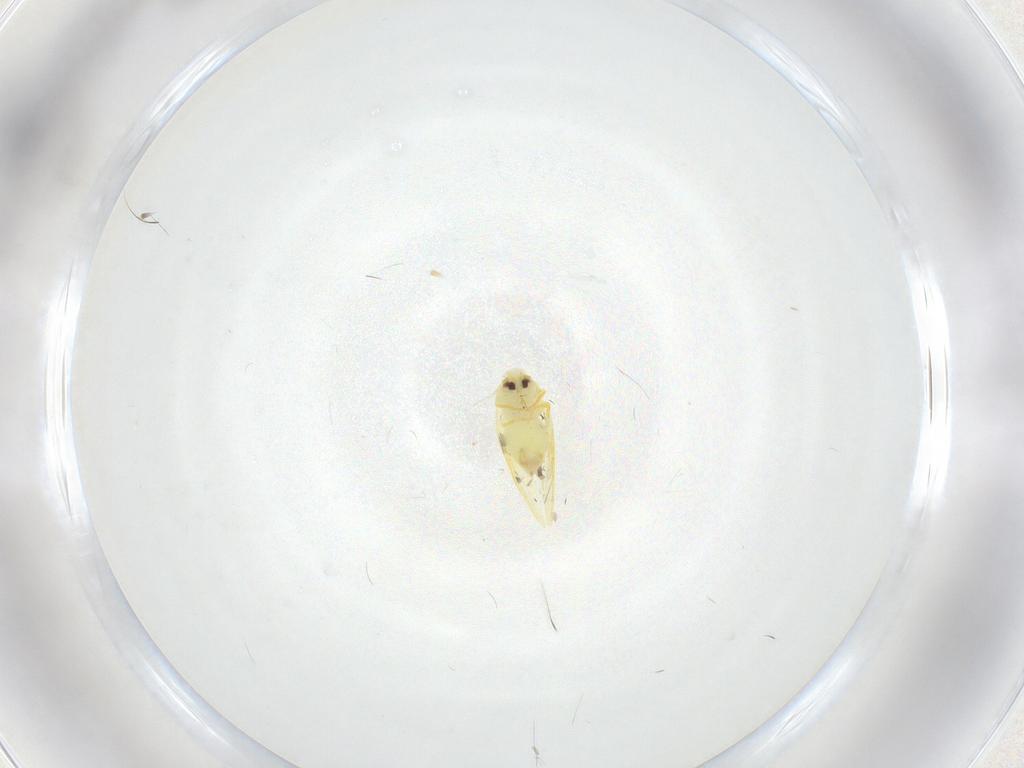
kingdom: Animalia
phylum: Arthropoda
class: Insecta
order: Hemiptera
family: Aleyrodidae
